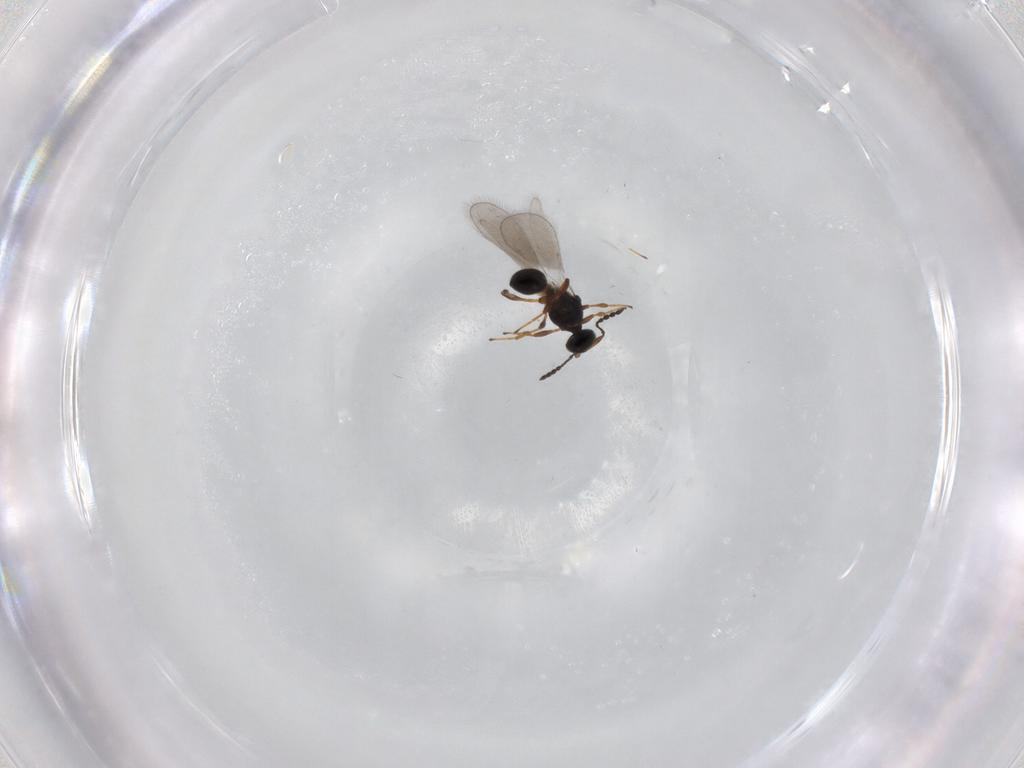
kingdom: Animalia
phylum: Arthropoda
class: Insecta
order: Hymenoptera
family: Platygastridae
